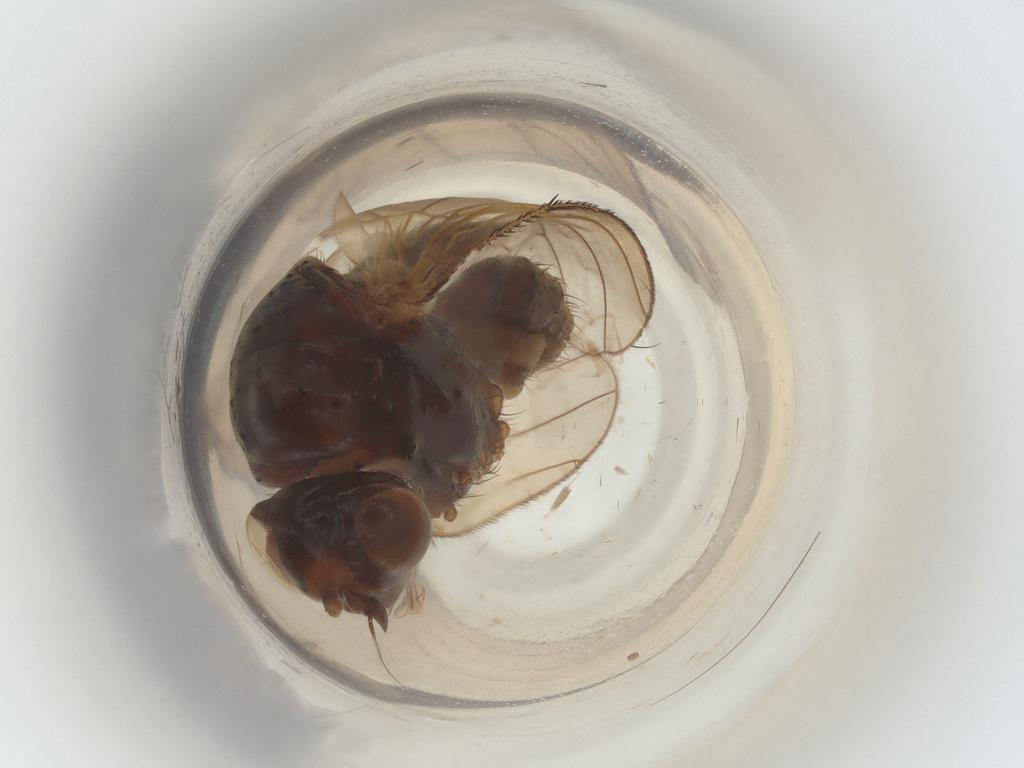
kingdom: Animalia
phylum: Arthropoda
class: Insecta
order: Diptera
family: Anthomyiidae
